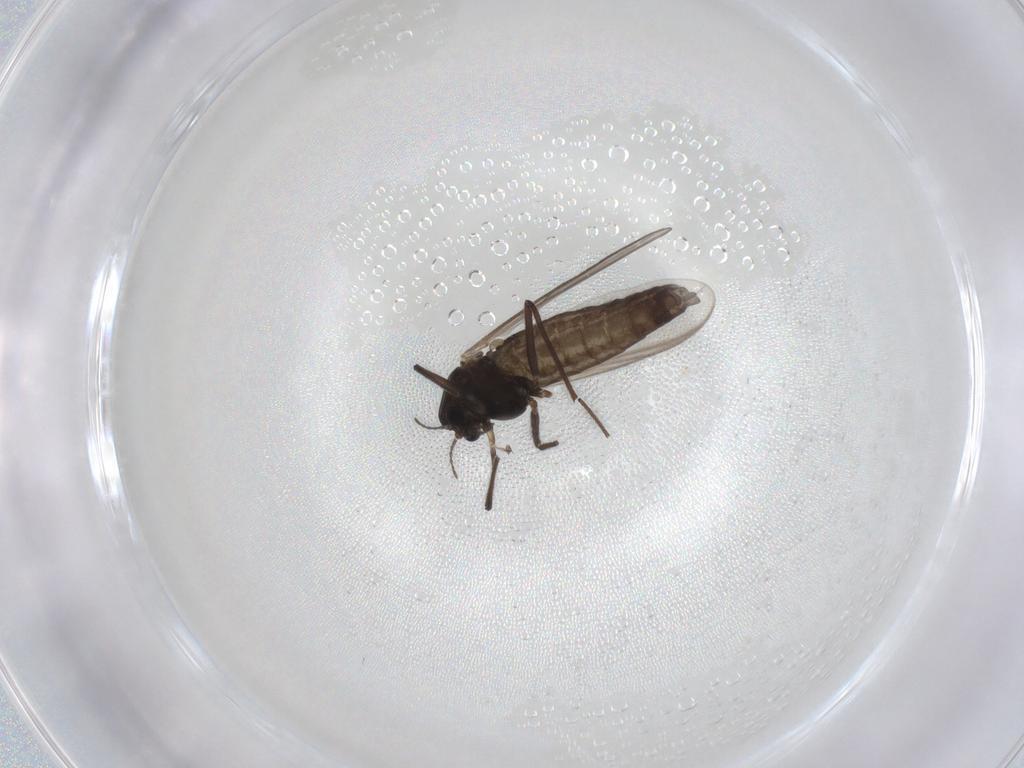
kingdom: Animalia
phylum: Arthropoda
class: Insecta
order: Diptera
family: Chironomidae
